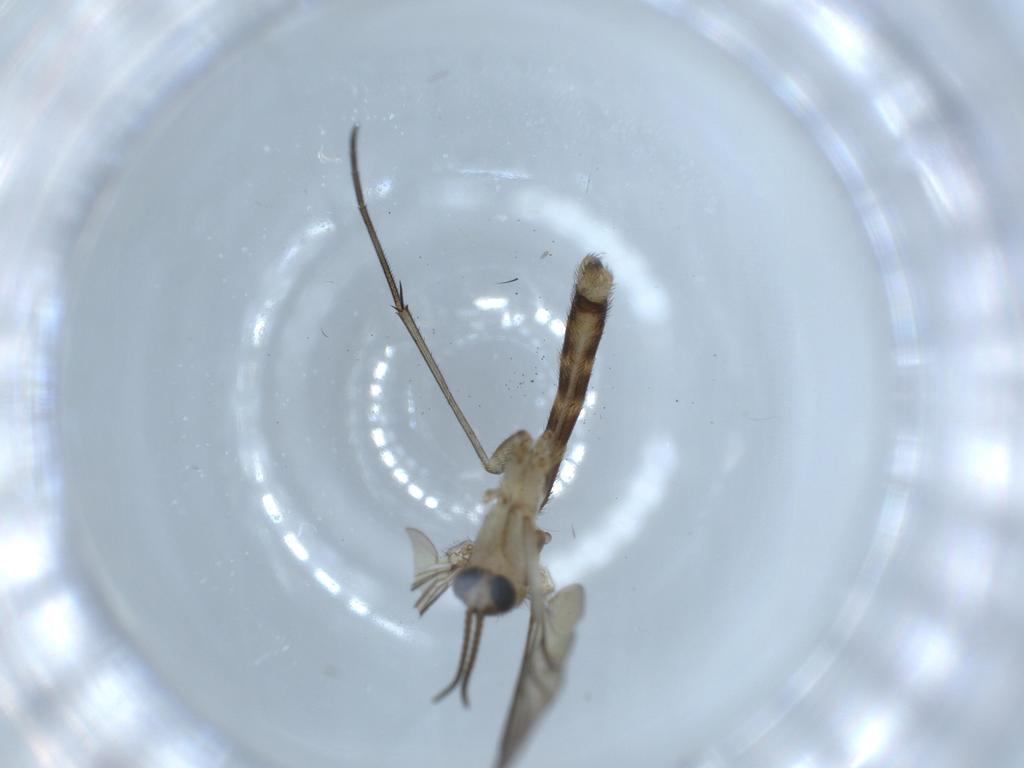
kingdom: Animalia
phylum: Arthropoda
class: Insecta
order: Diptera
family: Mycetophilidae
